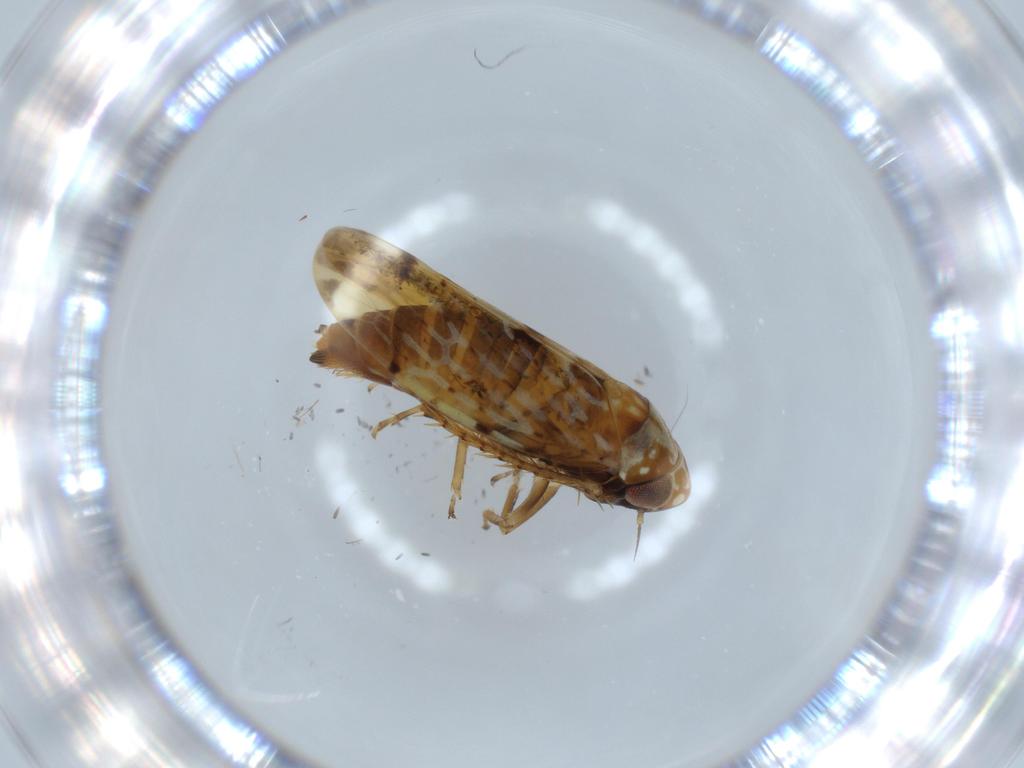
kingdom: Animalia
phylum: Arthropoda
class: Insecta
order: Hemiptera
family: Cicadellidae
